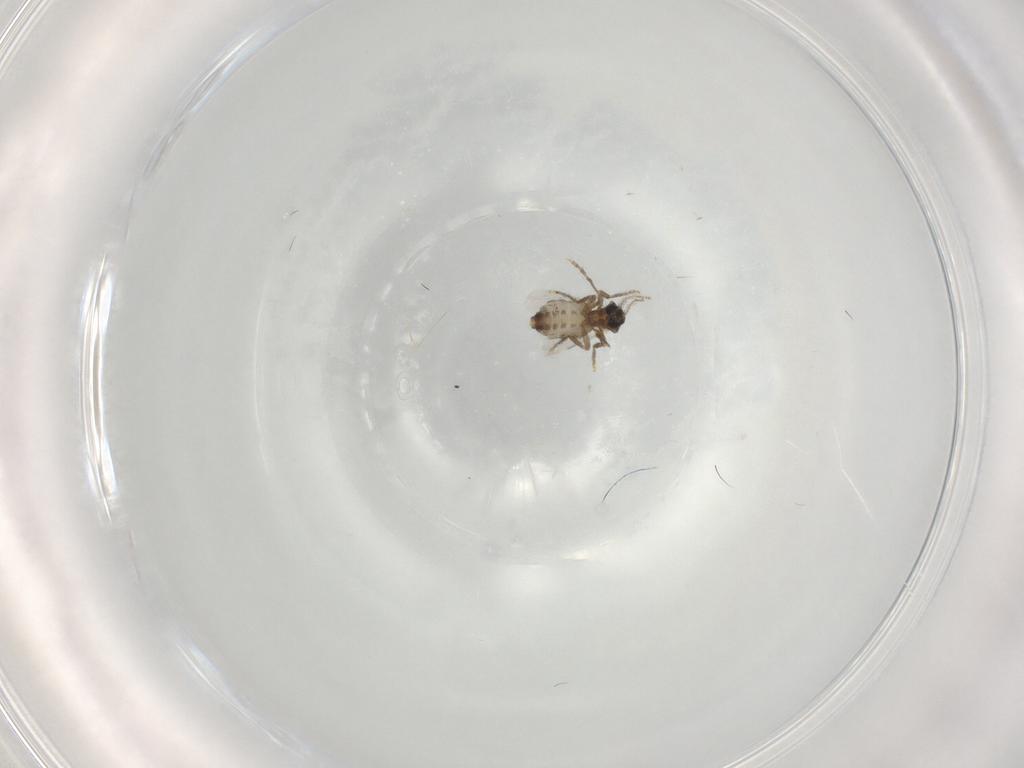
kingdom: Animalia
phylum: Arthropoda
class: Insecta
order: Diptera
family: Ceratopogonidae
